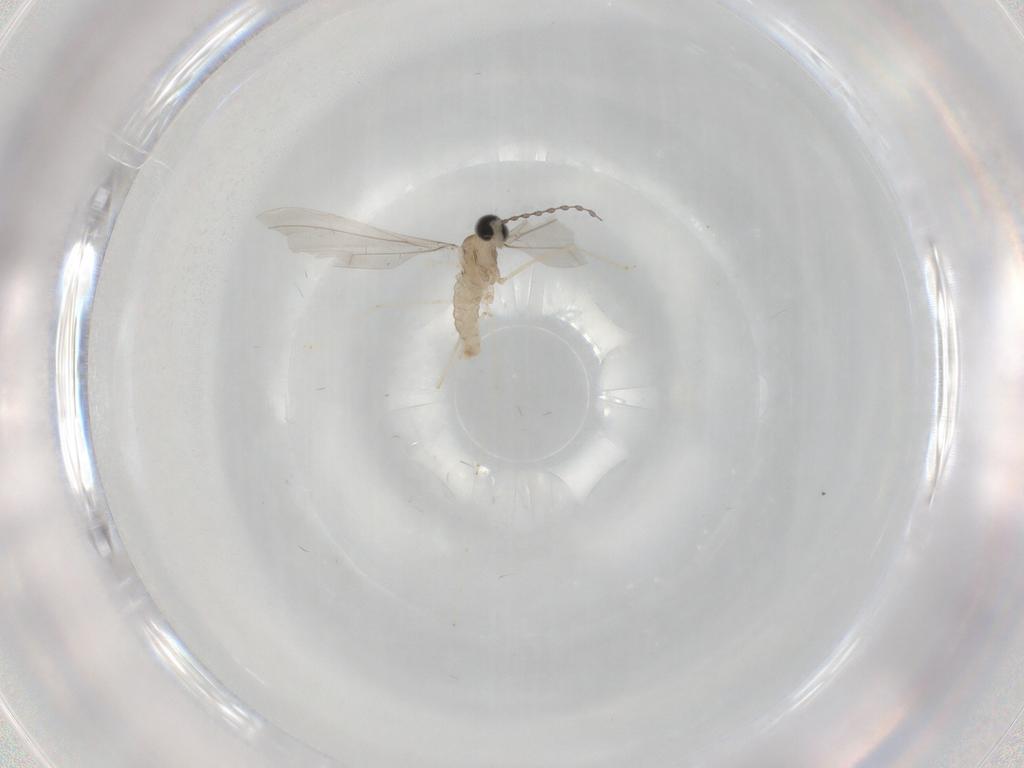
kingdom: Animalia
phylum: Arthropoda
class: Insecta
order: Diptera
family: Cecidomyiidae
